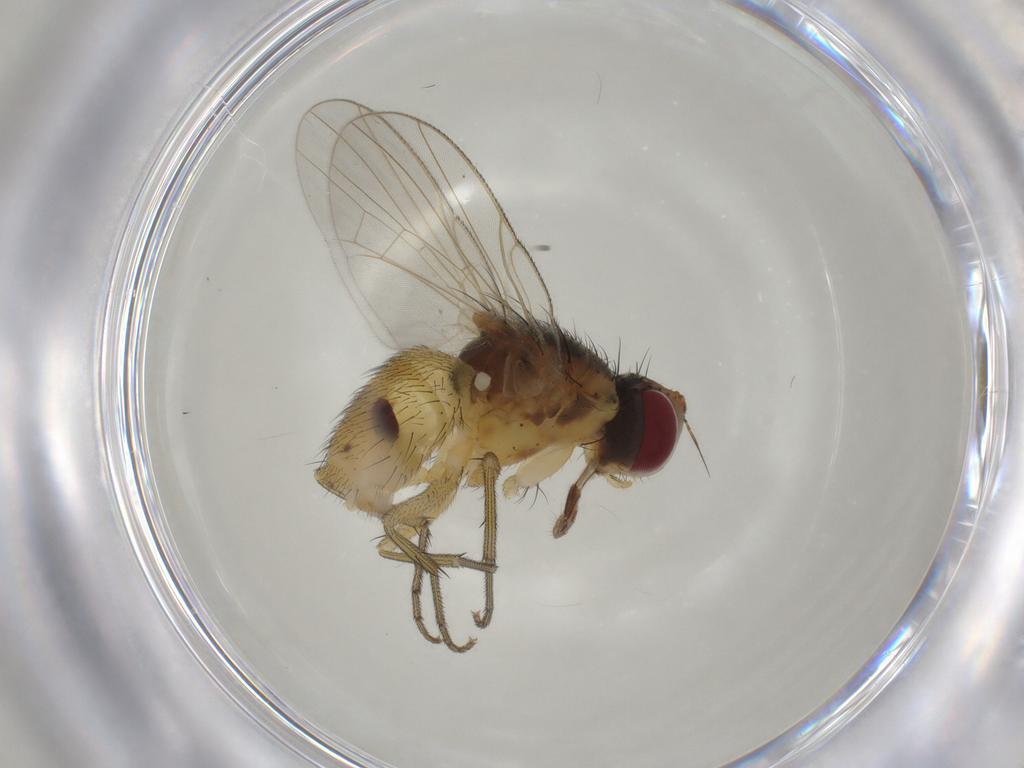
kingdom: Animalia
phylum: Arthropoda
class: Insecta
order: Diptera
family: Muscidae
